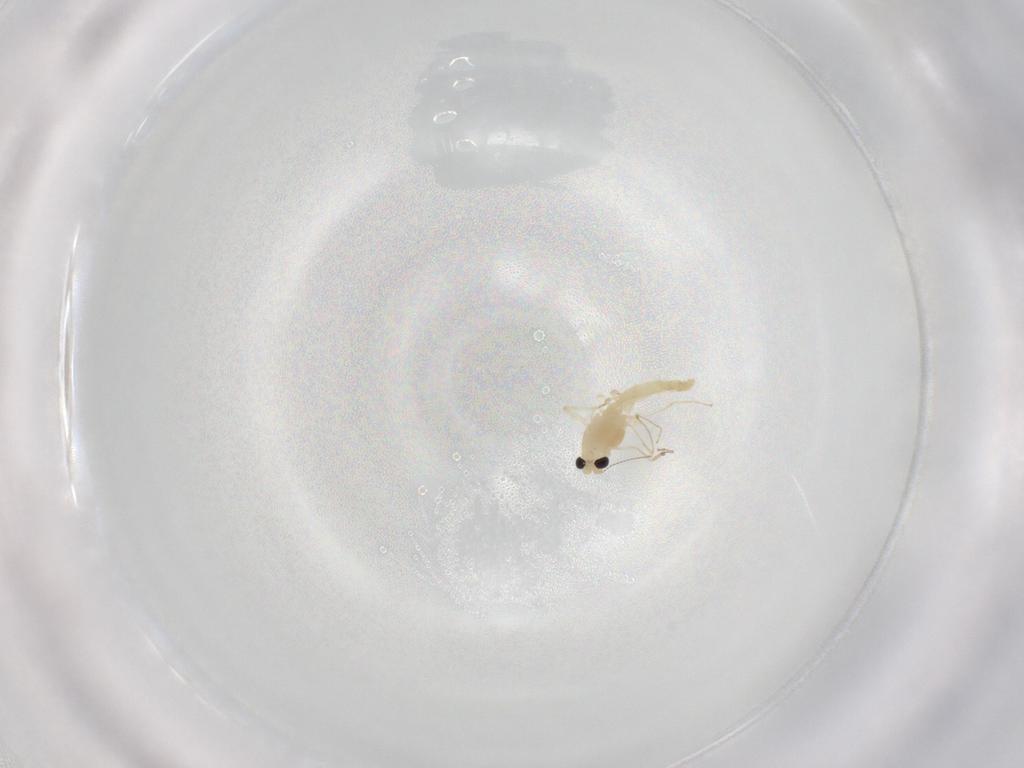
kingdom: Animalia
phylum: Arthropoda
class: Insecta
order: Diptera
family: Chironomidae
